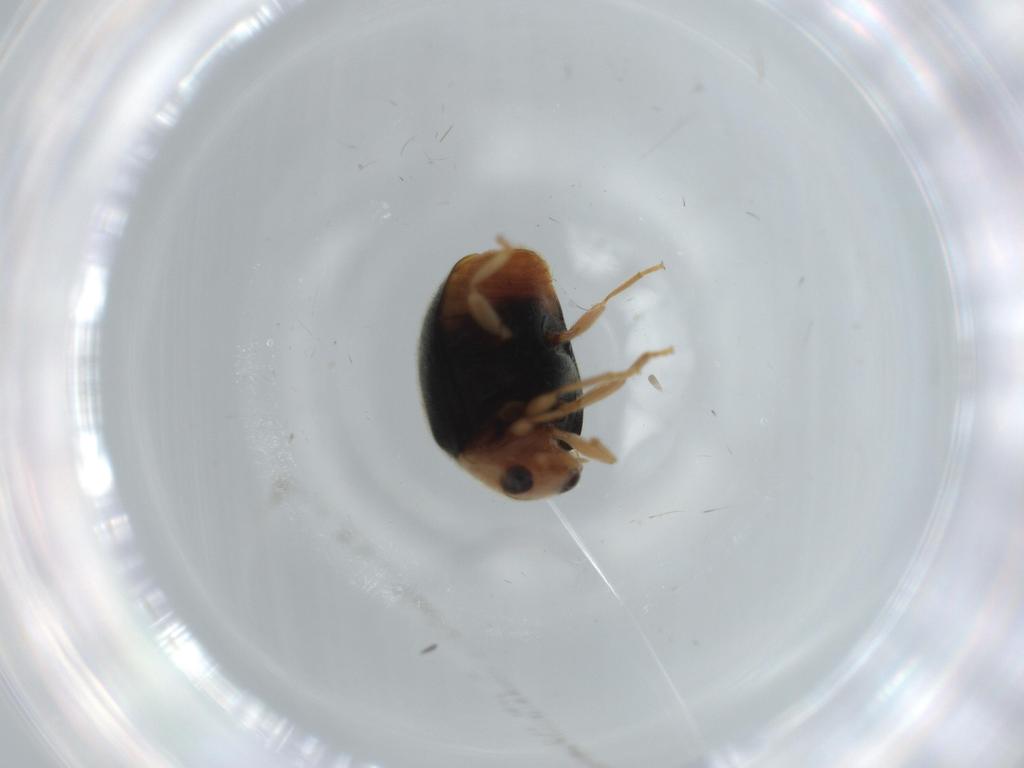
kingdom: Animalia
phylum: Arthropoda
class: Insecta
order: Coleoptera
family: Coccinellidae
